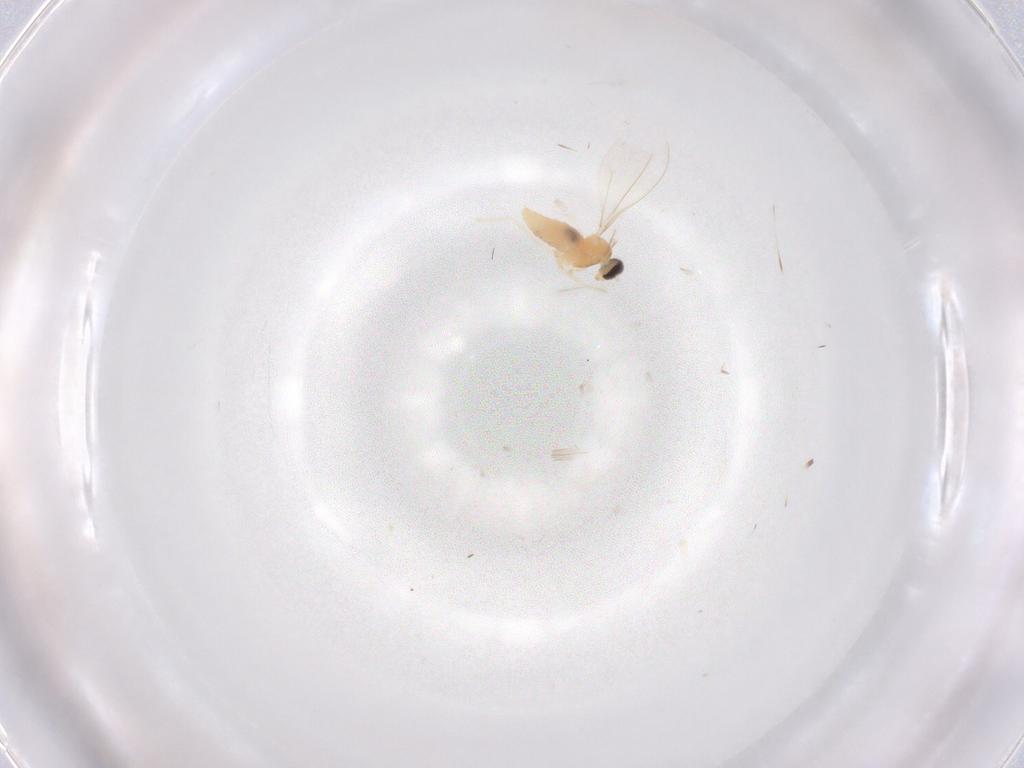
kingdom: Animalia
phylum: Arthropoda
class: Insecta
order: Diptera
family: Cecidomyiidae
